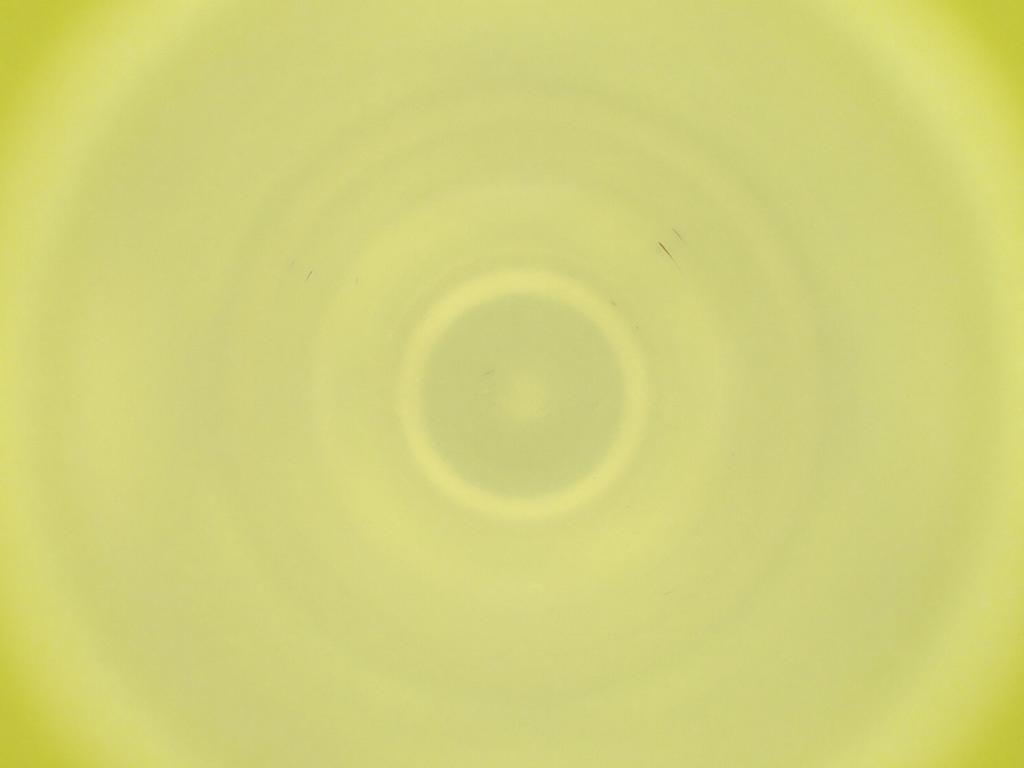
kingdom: Animalia
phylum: Arthropoda
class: Insecta
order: Diptera
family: Cecidomyiidae
